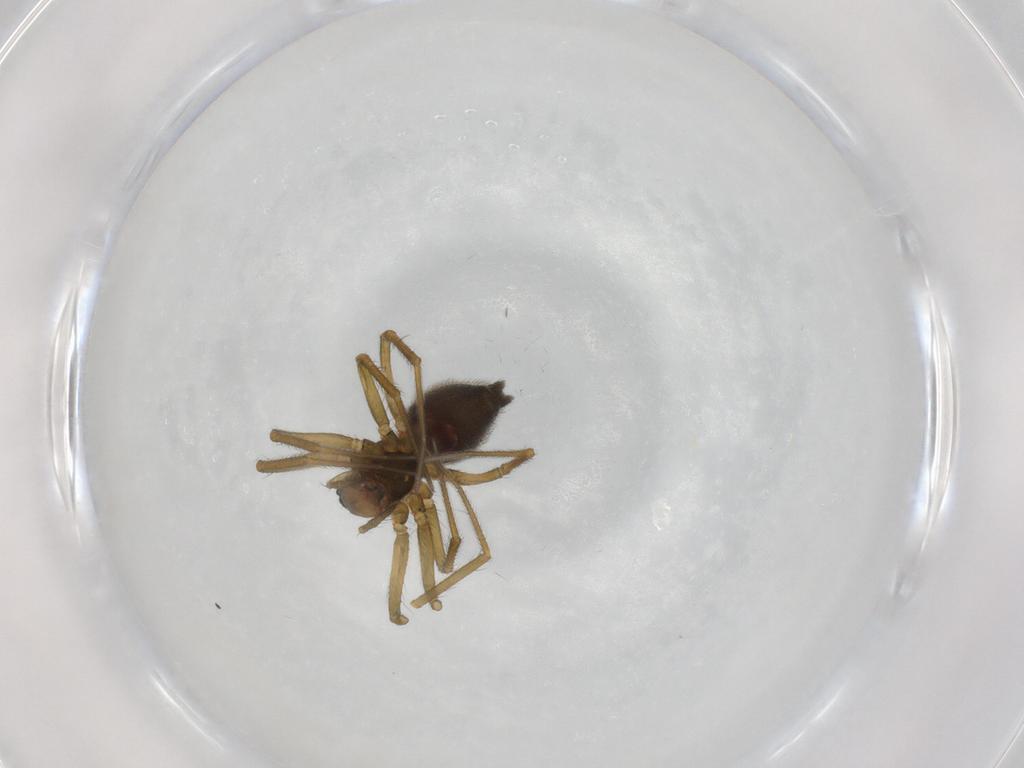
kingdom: Animalia
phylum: Arthropoda
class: Arachnida
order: Araneae
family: Linyphiidae
